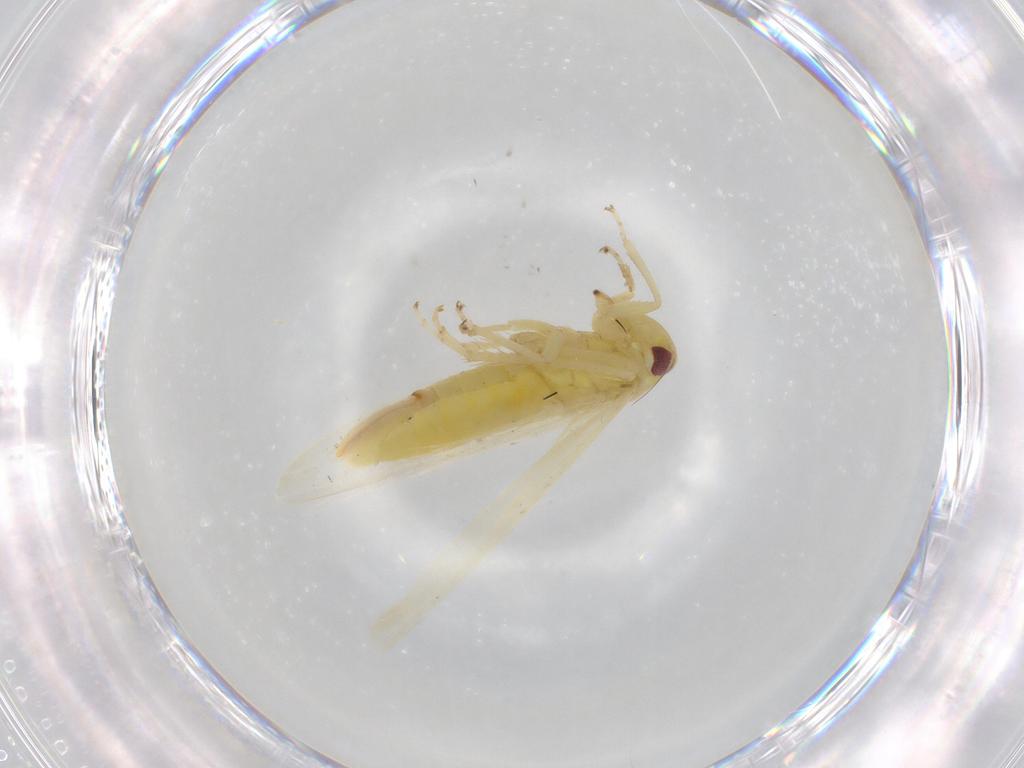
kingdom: Animalia
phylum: Arthropoda
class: Insecta
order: Hemiptera
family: Cicadellidae
